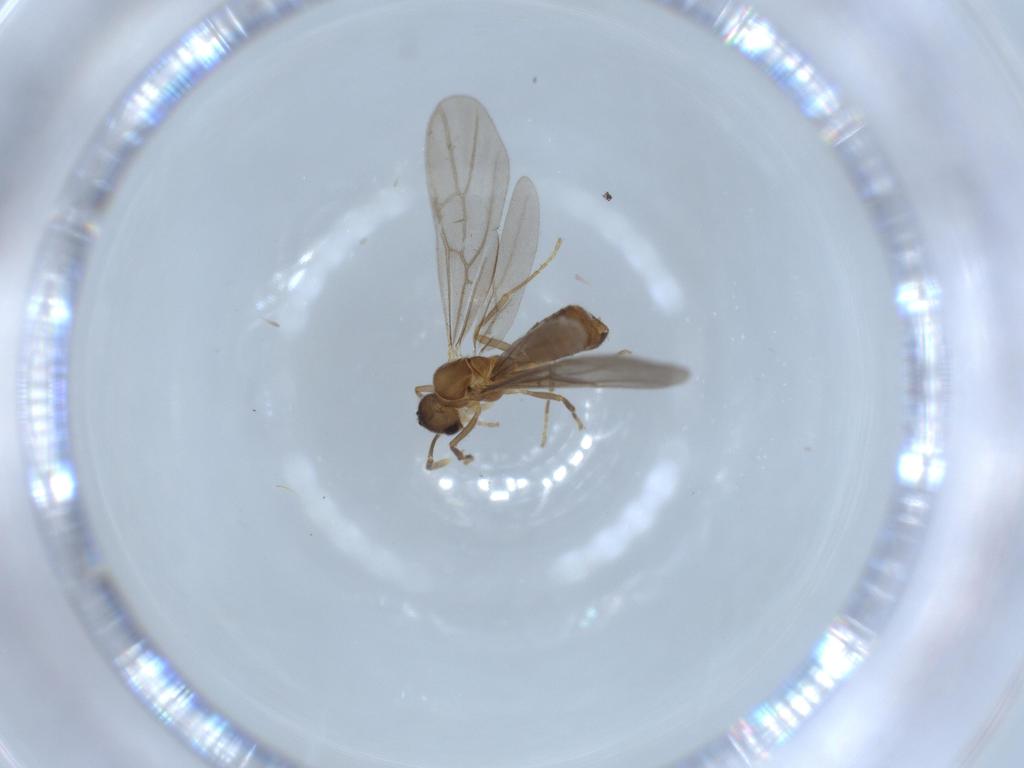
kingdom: Animalia
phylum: Arthropoda
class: Insecta
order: Hymenoptera
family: Formicidae
